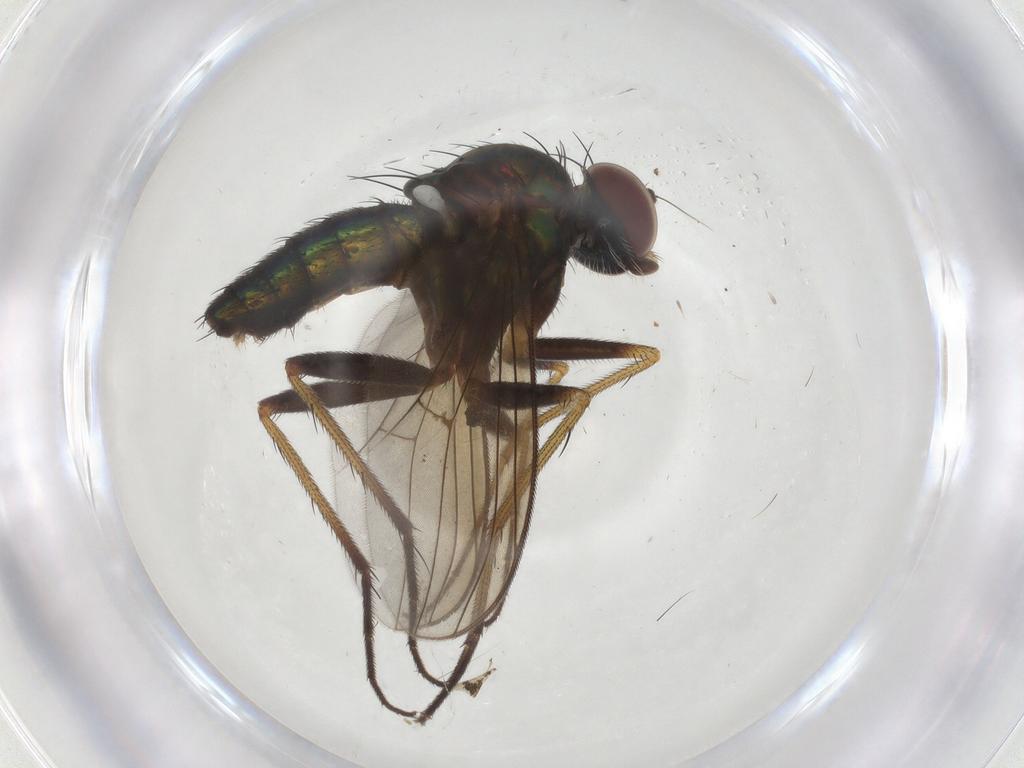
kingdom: Animalia
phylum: Arthropoda
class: Insecta
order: Diptera
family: Dolichopodidae
